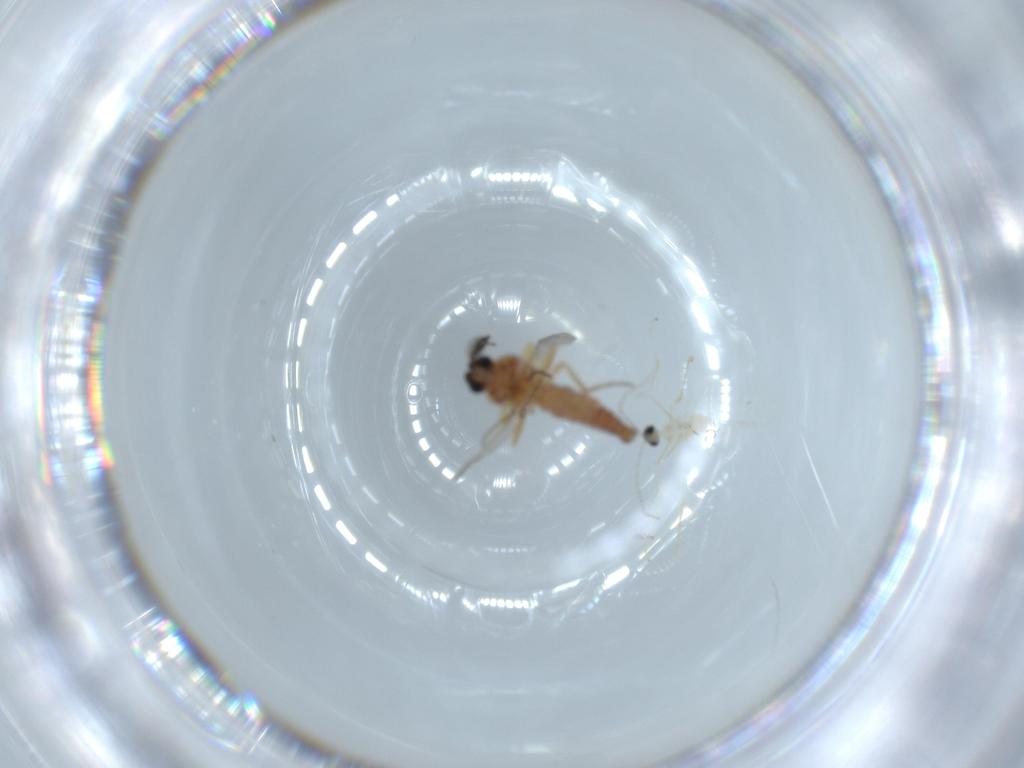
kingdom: Animalia
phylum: Arthropoda
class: Insecta
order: Diptera
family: Ceratopogonidae
